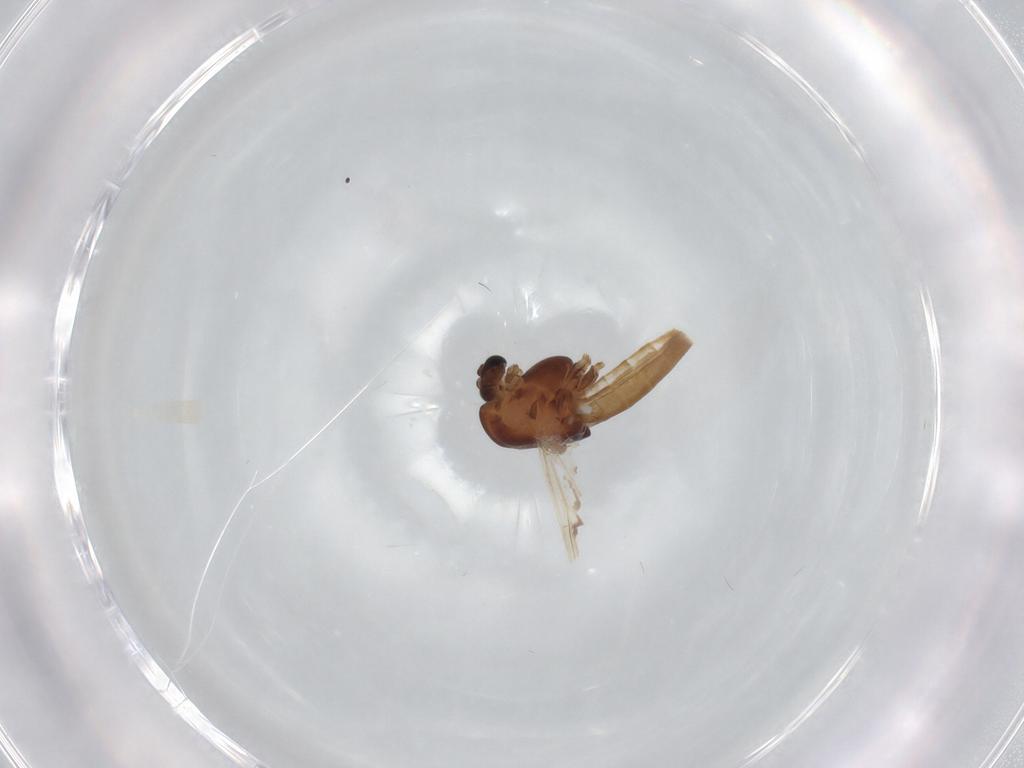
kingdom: Animalia
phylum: Arthropoda
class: Insecta
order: Diptera
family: Chironomidae
